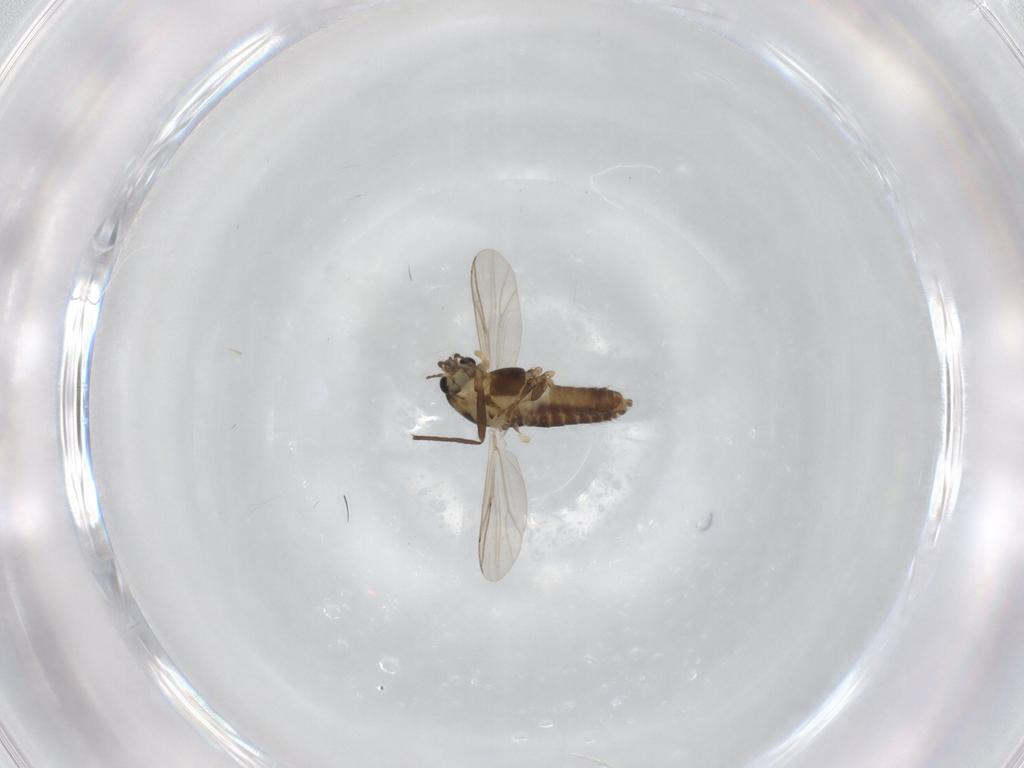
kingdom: Animalia
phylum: Arthropoda
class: Insecta
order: Diptera
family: Chironomidae
